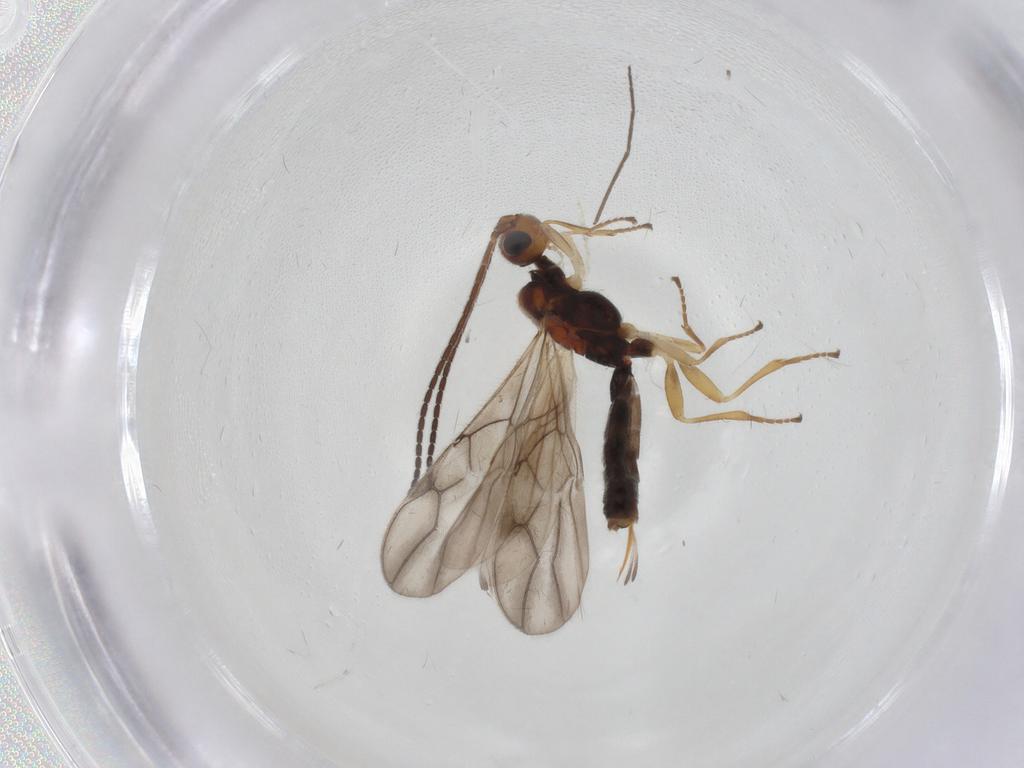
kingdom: Animalia
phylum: Arthropoda
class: Insecta
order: Hymenoptera
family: Braconidae
